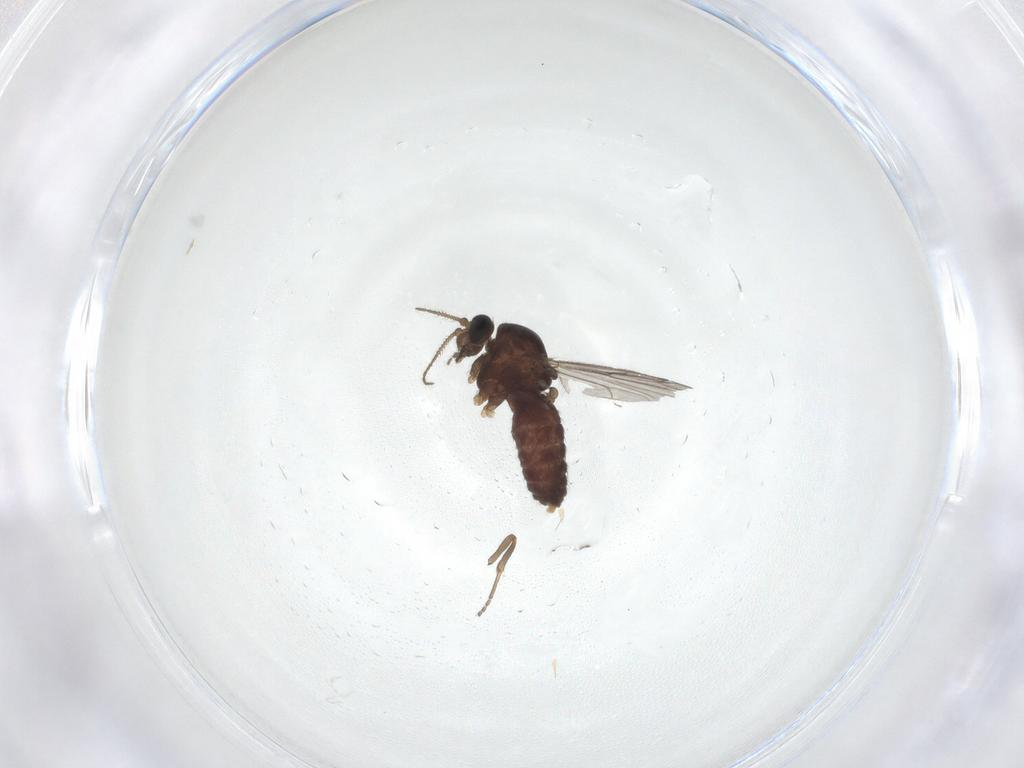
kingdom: Animalia
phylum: Arthropoda
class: Insecta
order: Diptera
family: Ceratopogonidae
